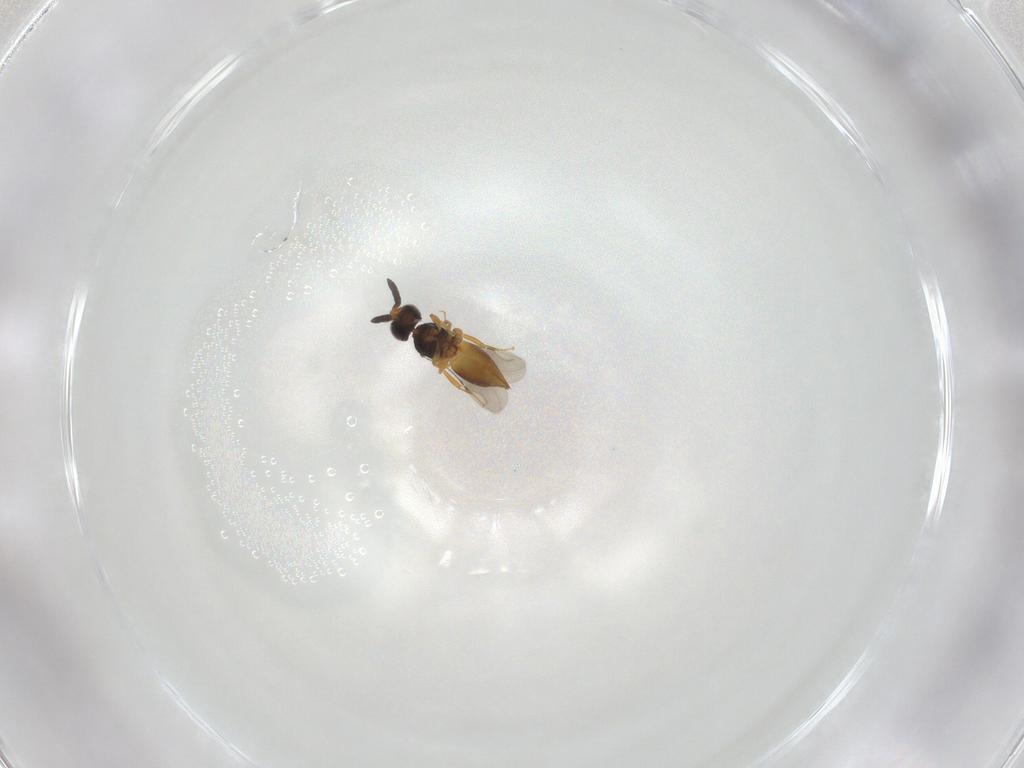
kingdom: Animalia
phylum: Arthropoda
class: Insecta
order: Hymenoptera
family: Ceraphronidae
